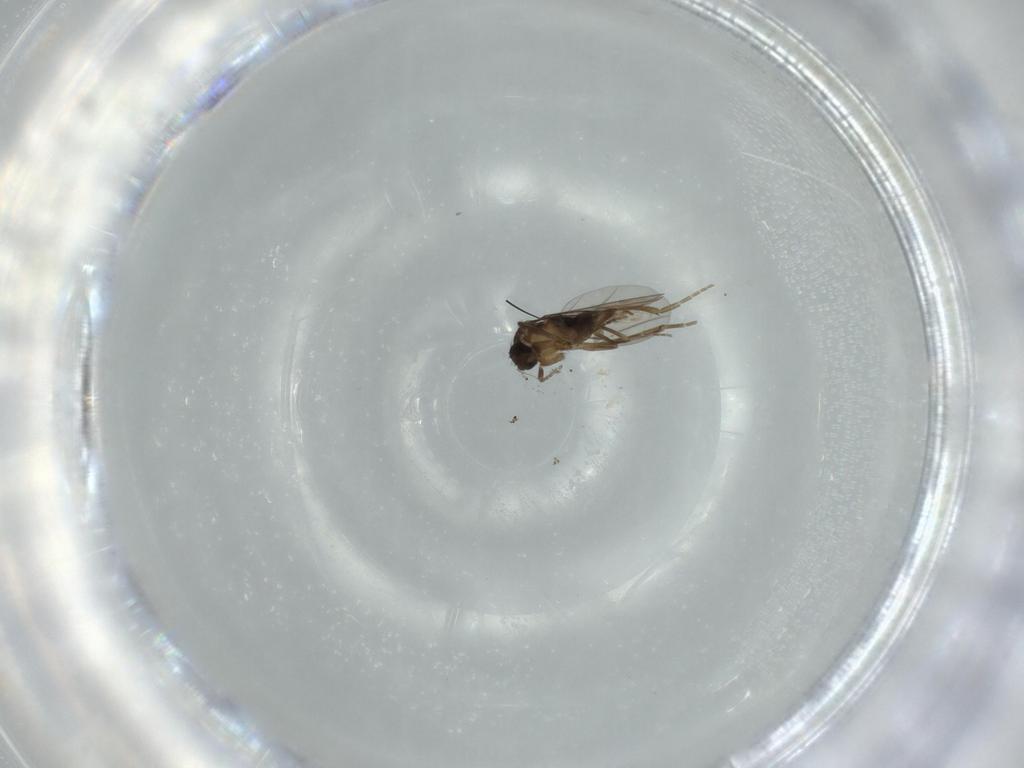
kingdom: Animalia
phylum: Arthropoda
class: Insecta
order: Diptera
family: Phoridae
